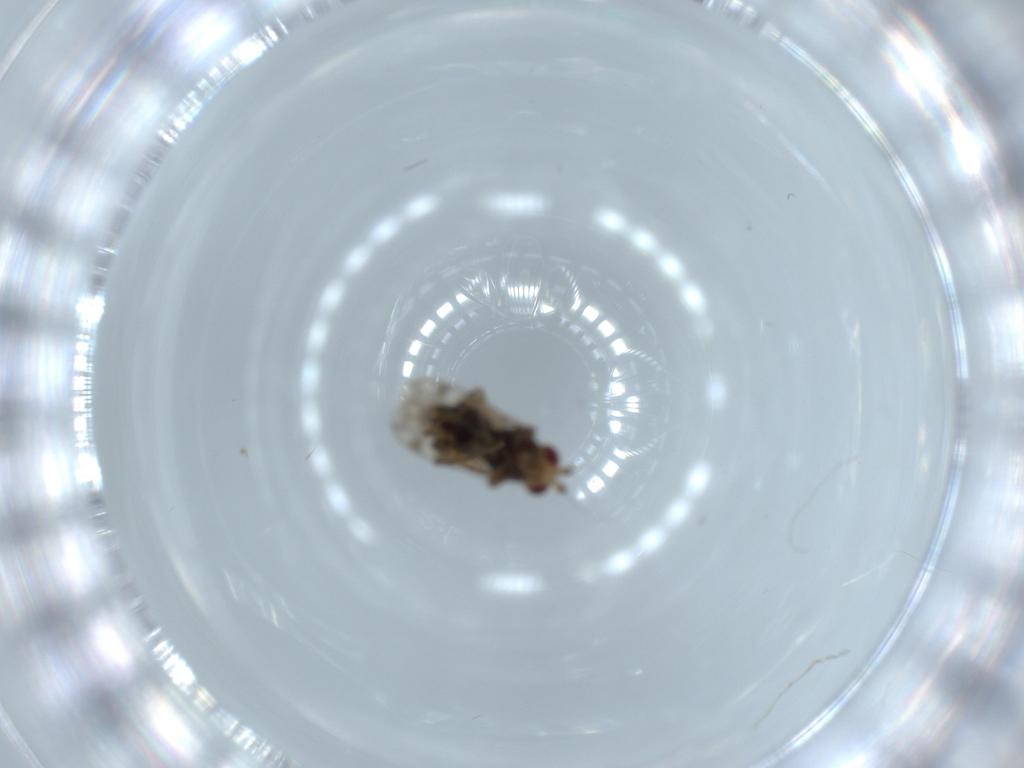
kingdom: Animalia
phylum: Arthropoda
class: Insecta
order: Diptera
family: Sphaeroceridae
